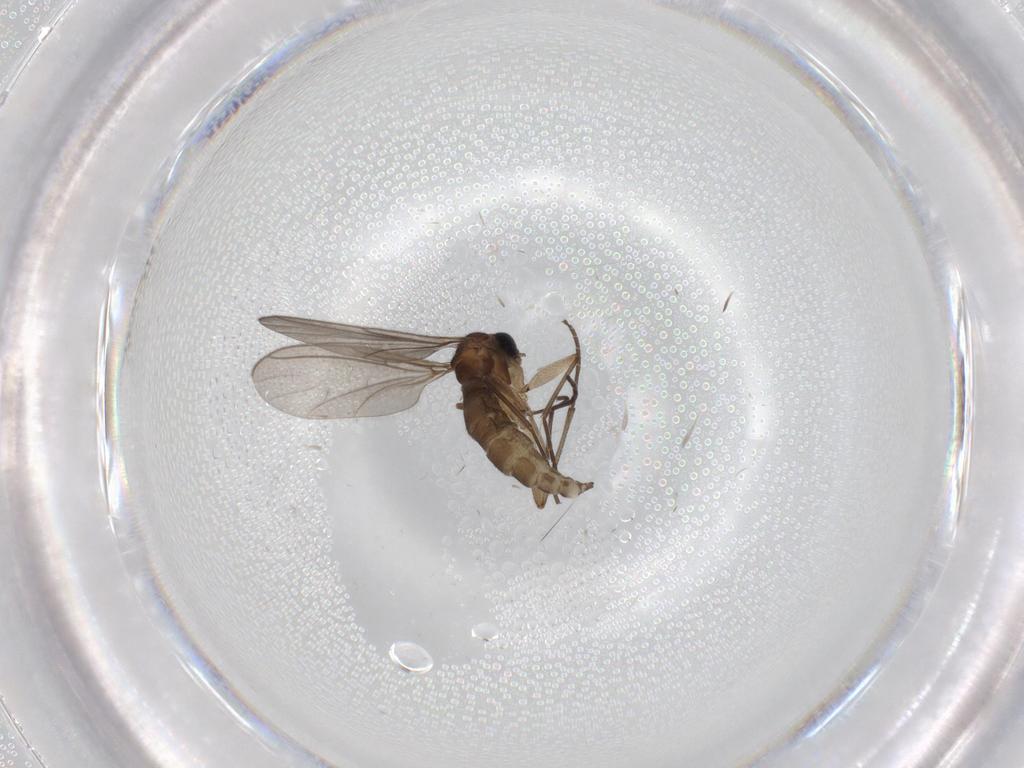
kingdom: Animalia
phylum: Arthropoda
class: Insecta
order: Diptera
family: Sciaridae
